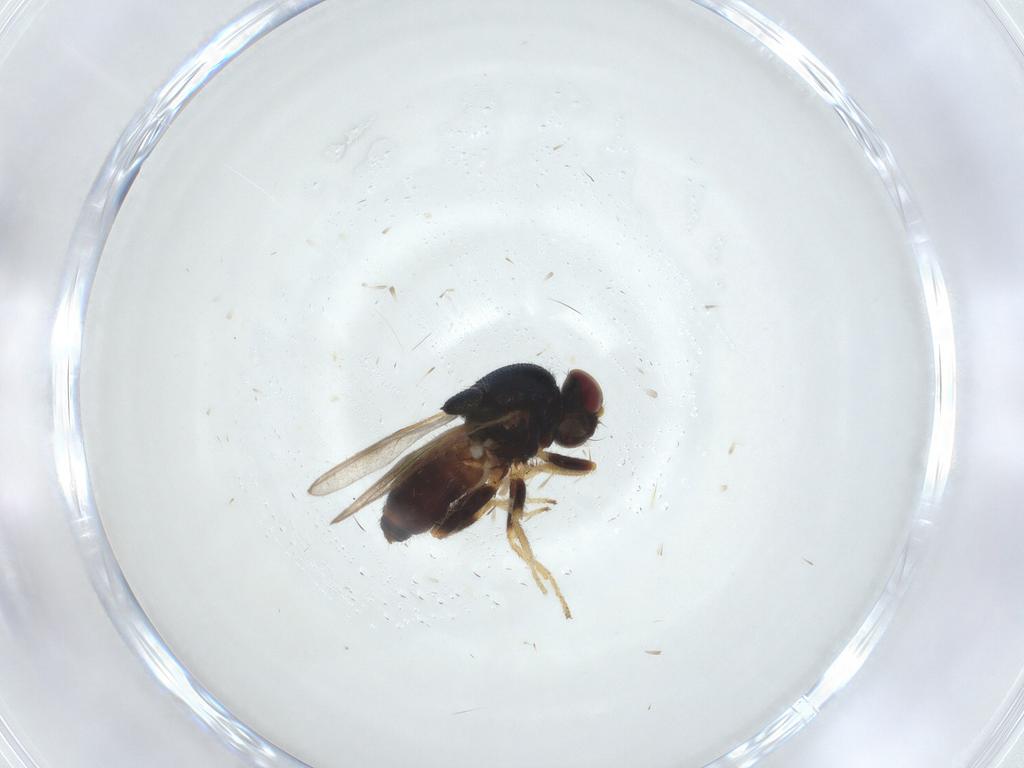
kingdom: Animalia
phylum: Arthropoda
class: Insecta
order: Diptera
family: Chloropidae
